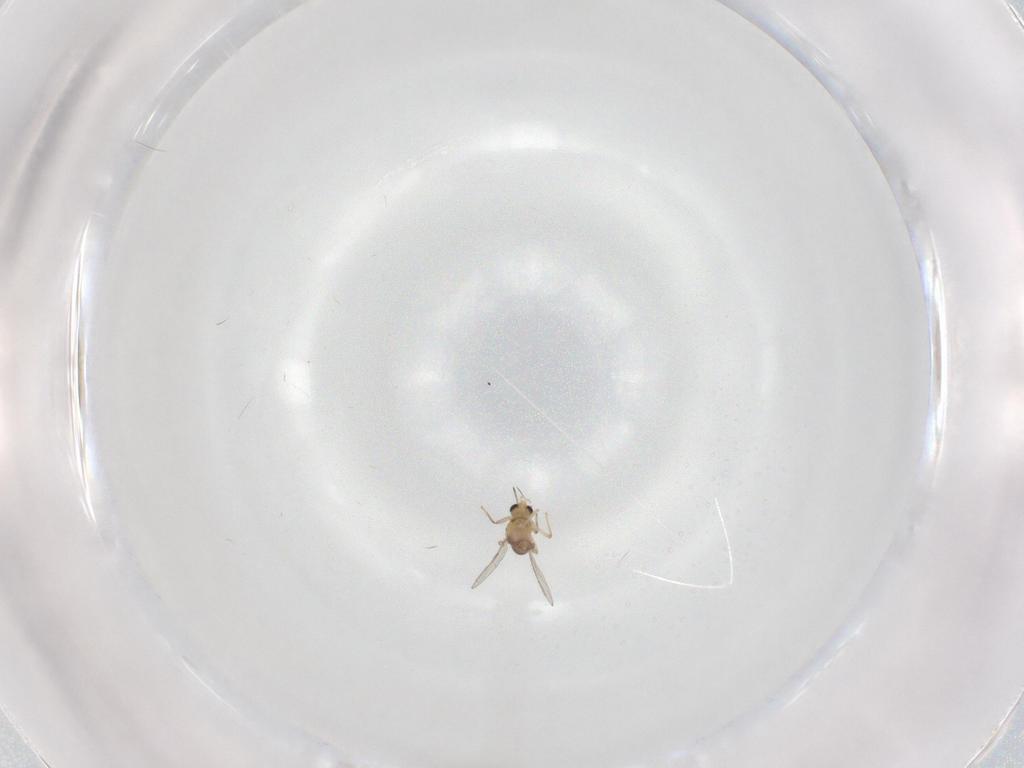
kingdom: Animalia
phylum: Arthropoda
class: Insecta
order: Diptera
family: Chironomidae
